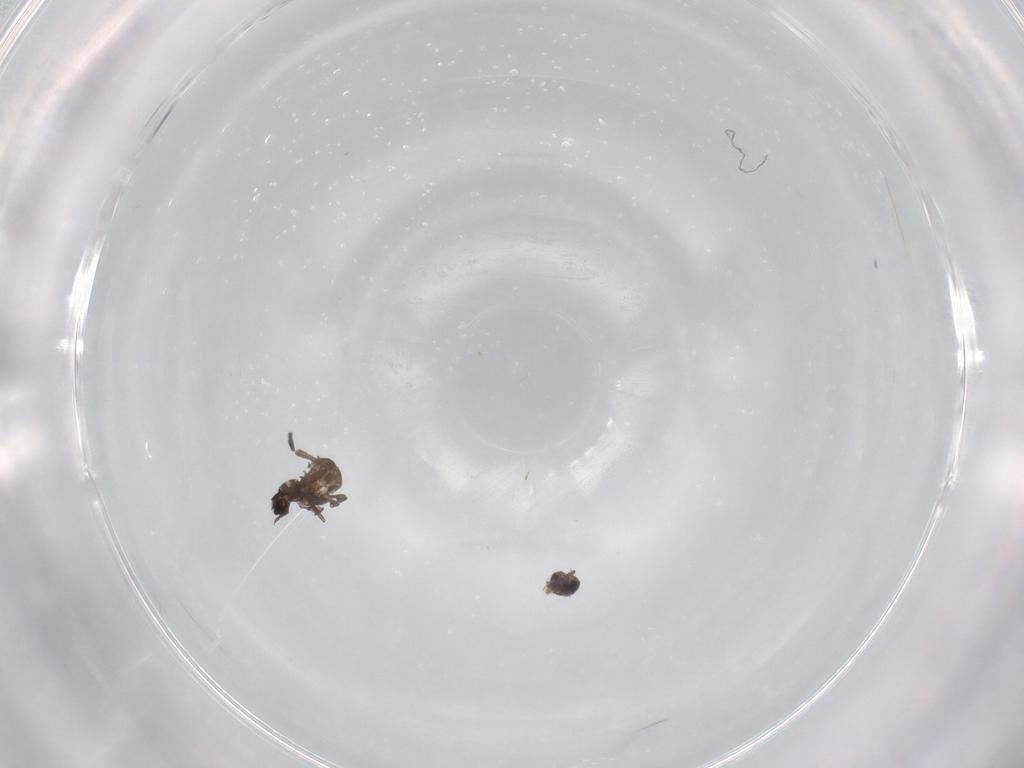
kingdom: Animalia
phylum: Arthropoda
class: Insecta
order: Diptera
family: Phoridae
